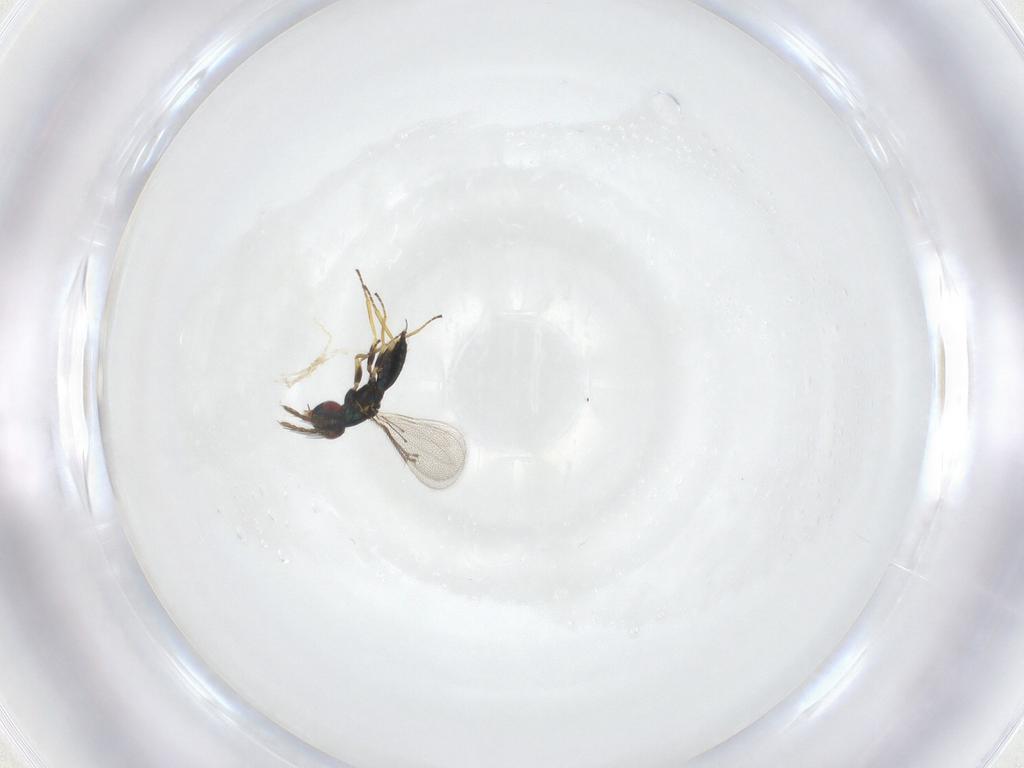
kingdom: Animalia
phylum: Arthropoda
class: Insecta
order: Hymenoptera
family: Eulophidae
